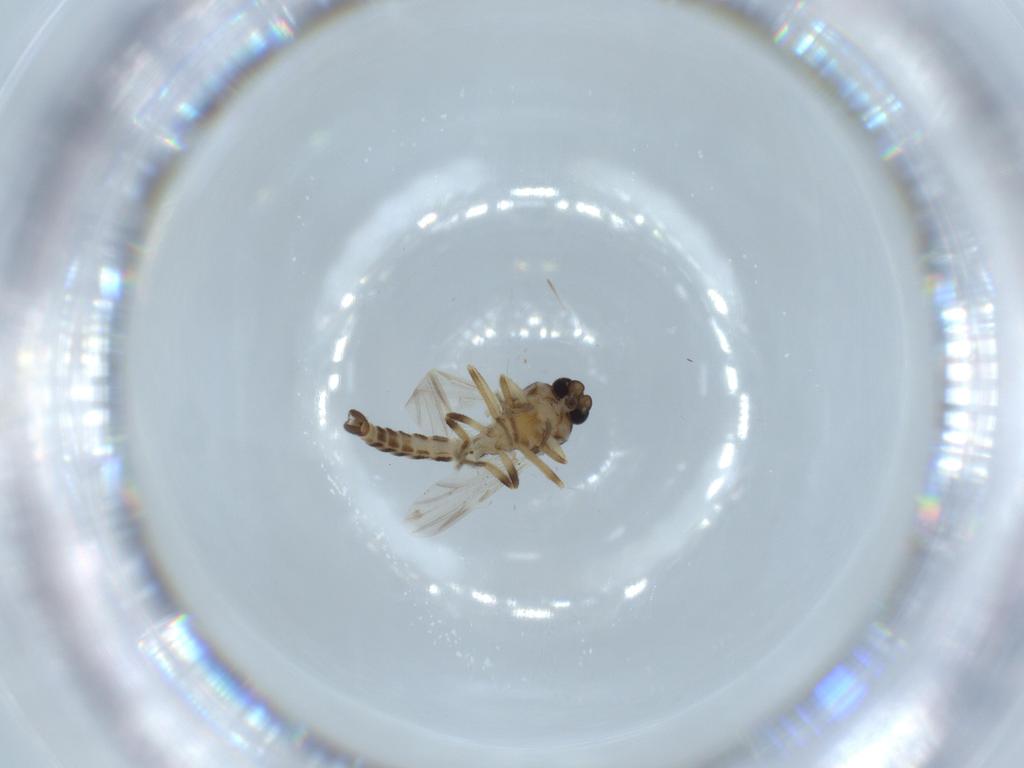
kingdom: Animalia
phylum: Arthropoda
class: Insecta
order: Diptera
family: Ceratopogonidae
